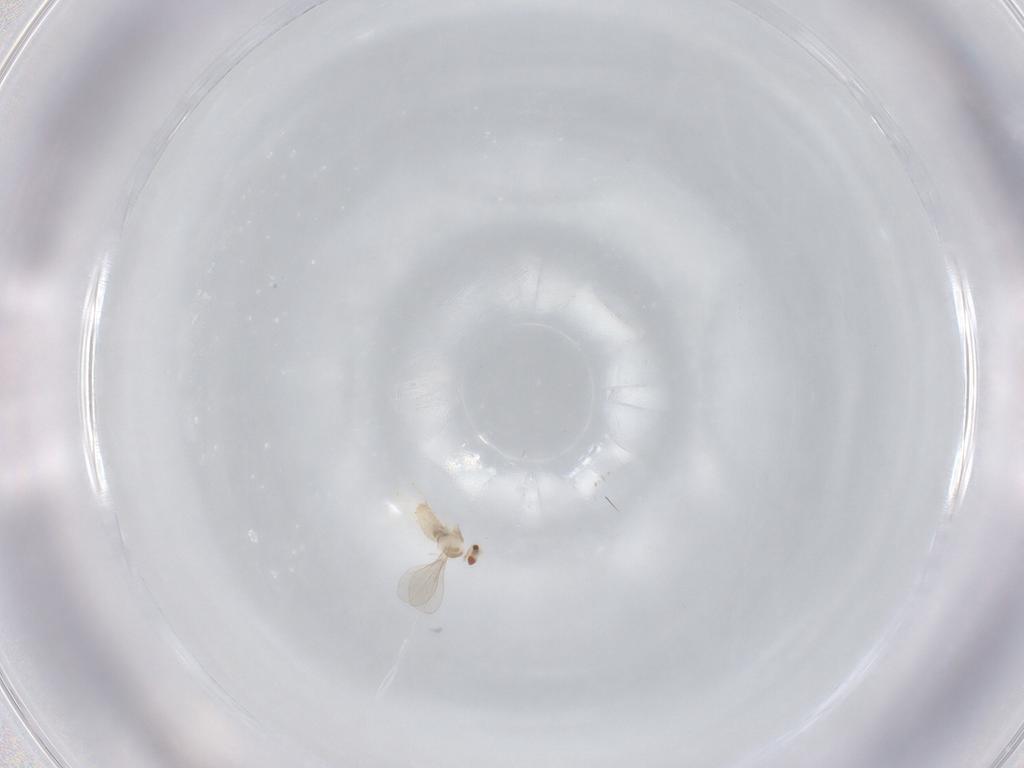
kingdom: Animalia
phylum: Arthropoda
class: Insecta
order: Diptera
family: Cecidomyiidae
